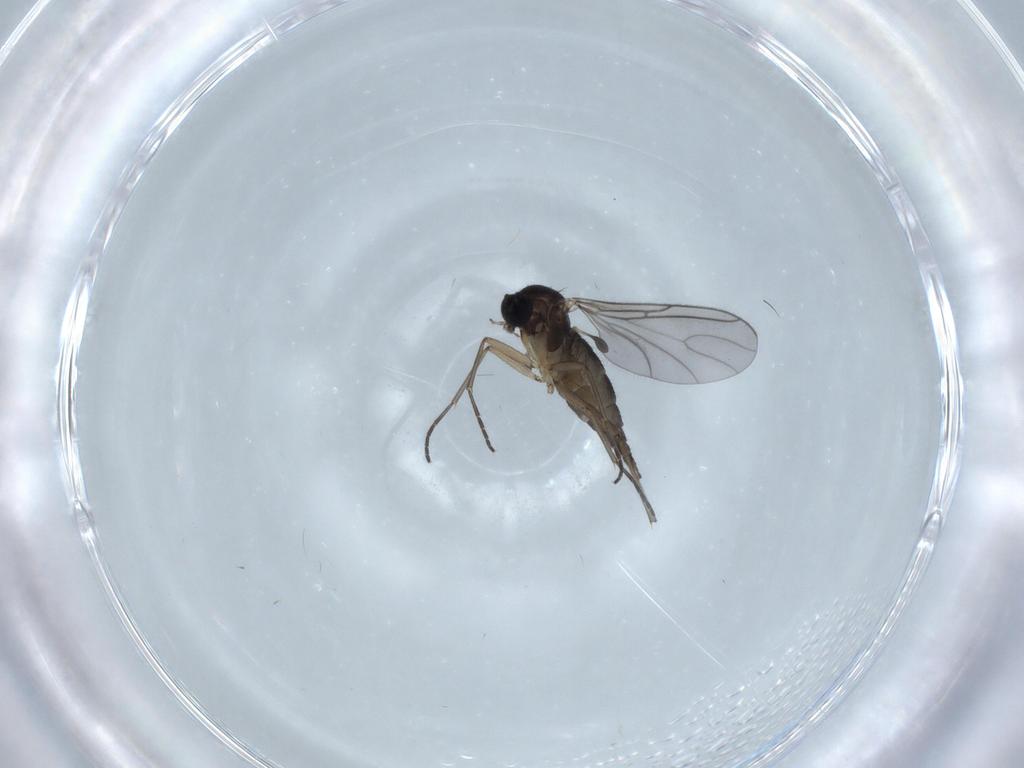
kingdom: Animalia
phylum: Arthropoda
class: Insecta
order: Diptera
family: Sciaridae
